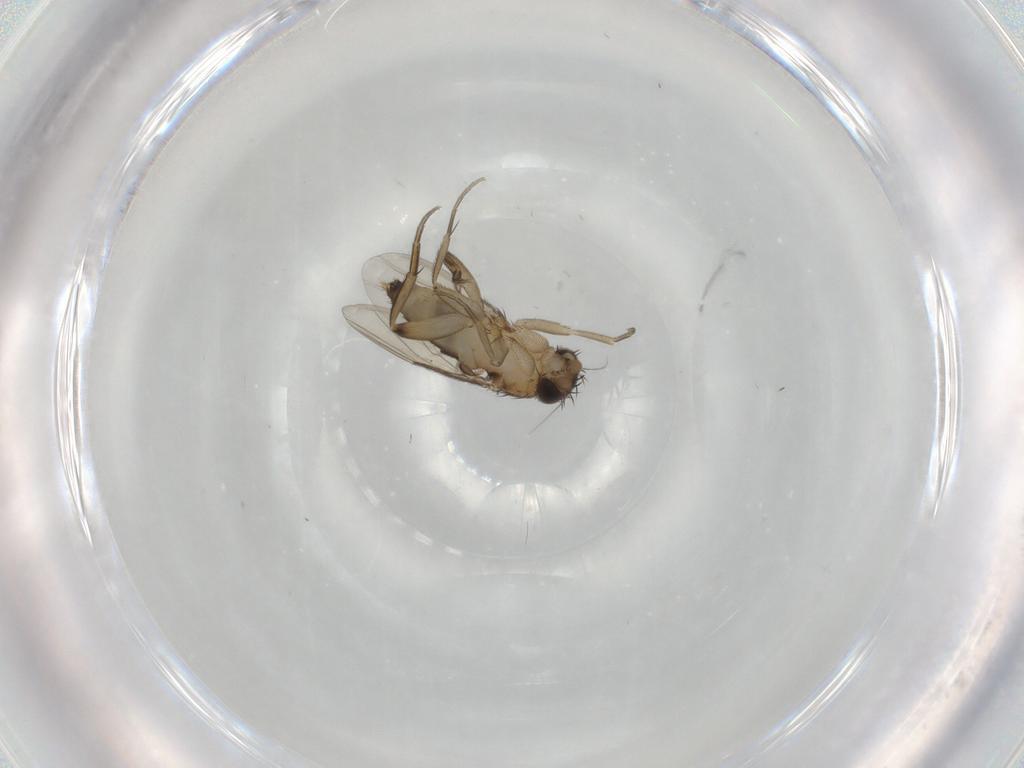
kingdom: Animalia
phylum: Arthropoda
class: Insecta
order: Diptera
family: Phoridae
